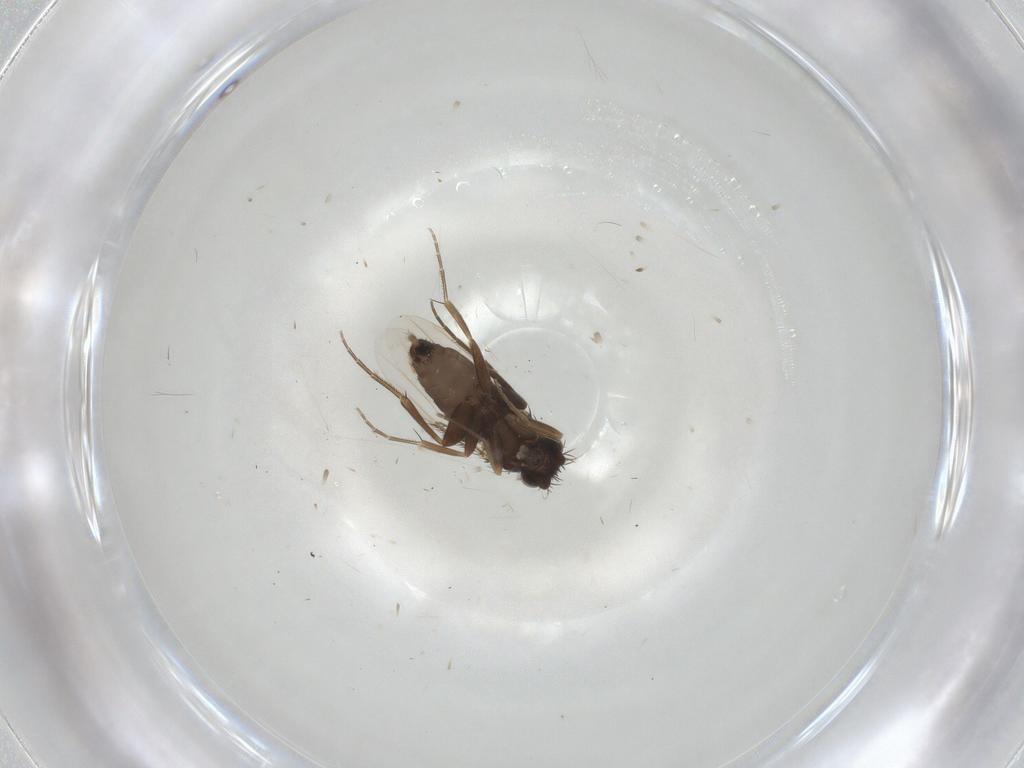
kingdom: Animalia
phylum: Arthropoda
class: Insecta
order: Diptera
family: Phoridae
